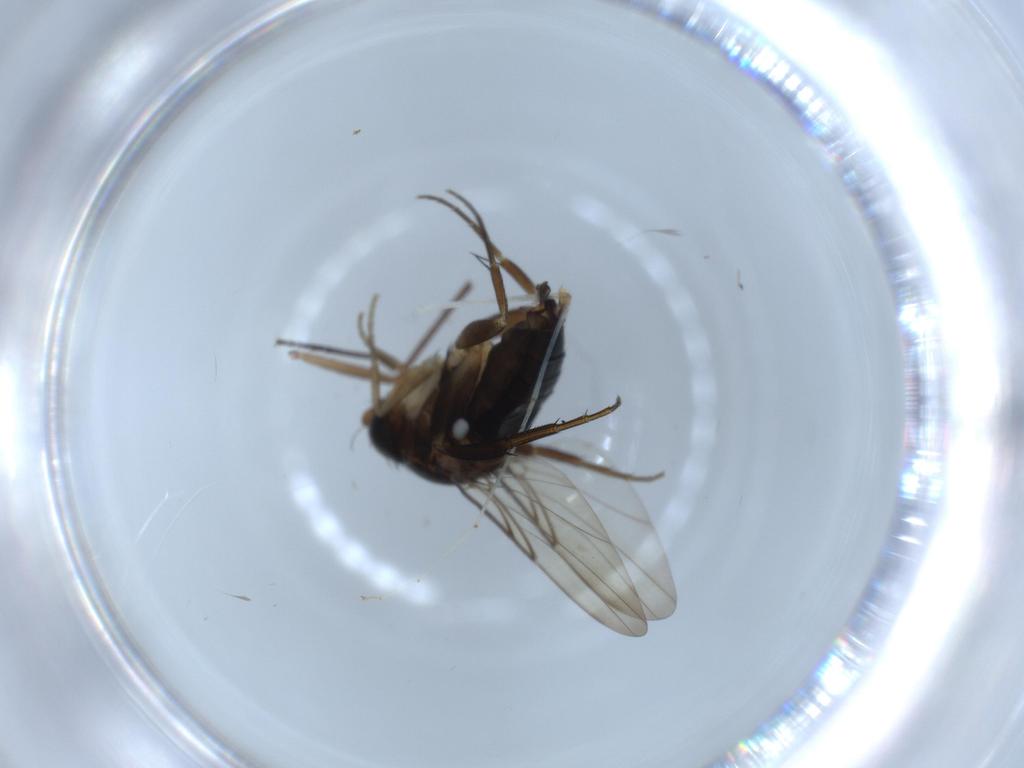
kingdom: Animalia
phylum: Arthropoda
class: Insecta
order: Diptera
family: Phoridae
